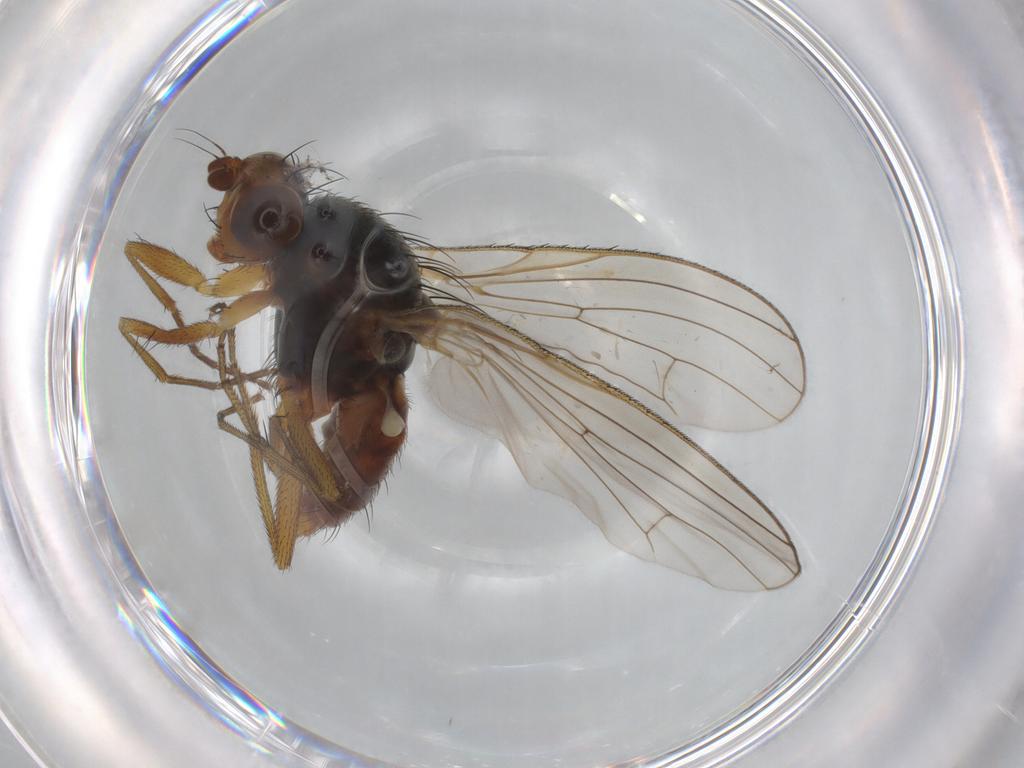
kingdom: Animalia
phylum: Arthropoda
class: Insecta
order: Diptera
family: Heleomyzidae
